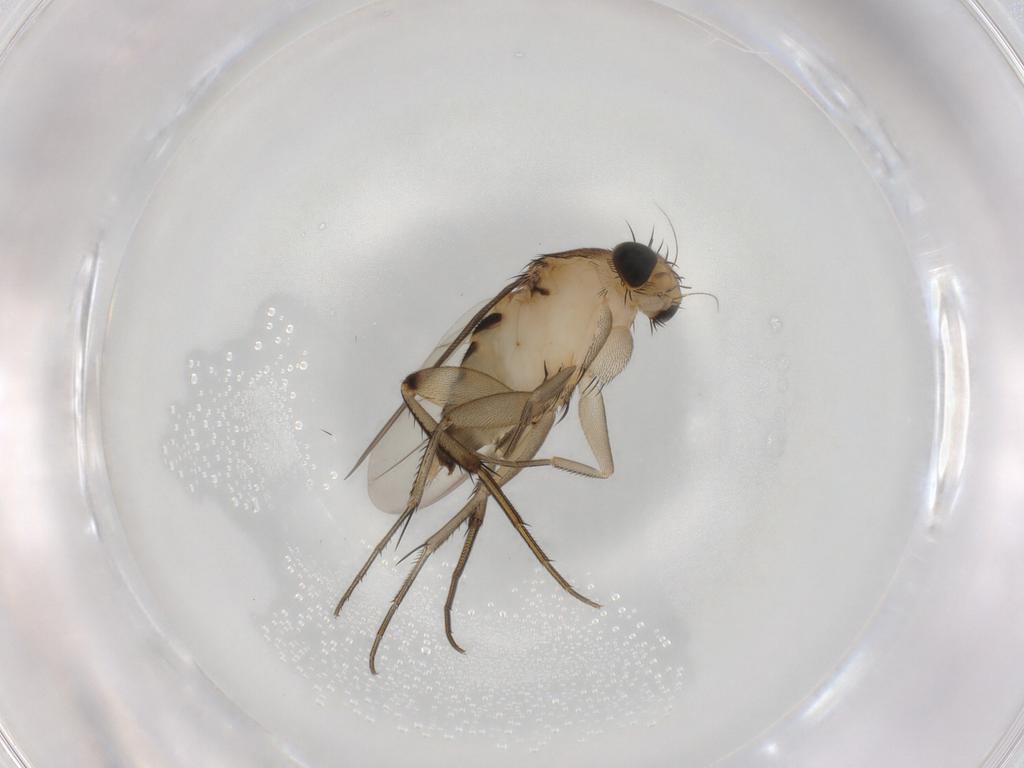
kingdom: Animalia
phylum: Arthropoda
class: Insecta
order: Diptera
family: Phoridae
